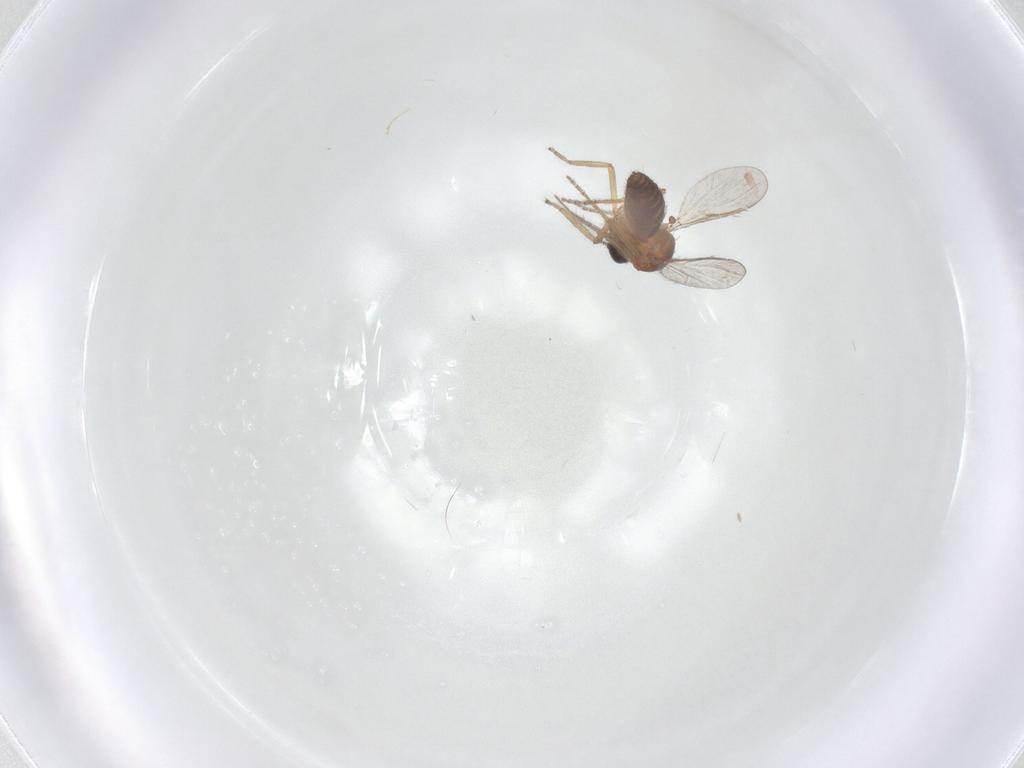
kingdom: Animalia
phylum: Arthropoda
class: Insecta
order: Diptera
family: Ceratopogonidae
